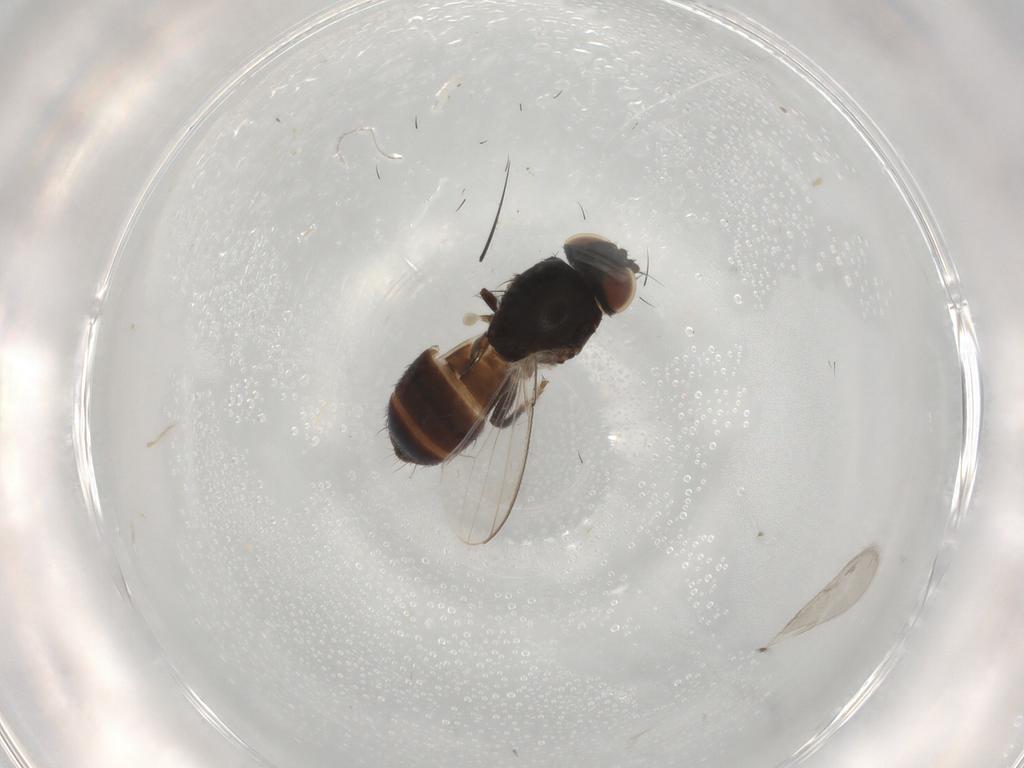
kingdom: Animalia
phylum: Arthropoda
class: Insecta
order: Diptera
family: Milichiidae
